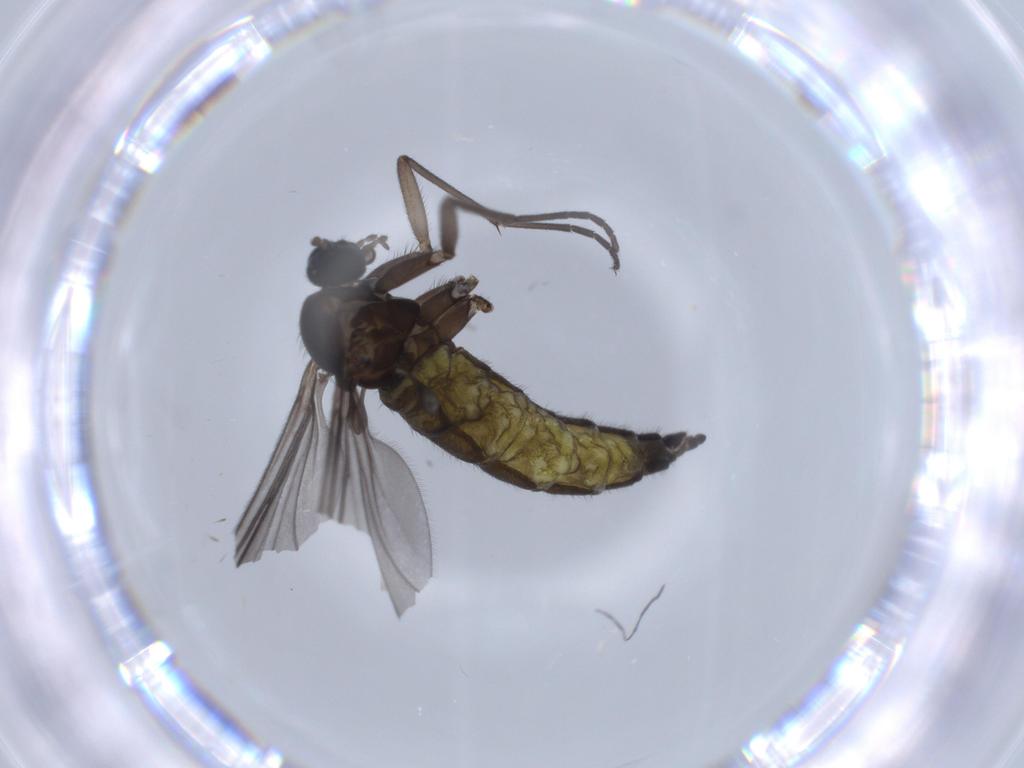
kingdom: Animalia
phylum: Arthropoda
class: Insecta
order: Diptera
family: Sciaridae
